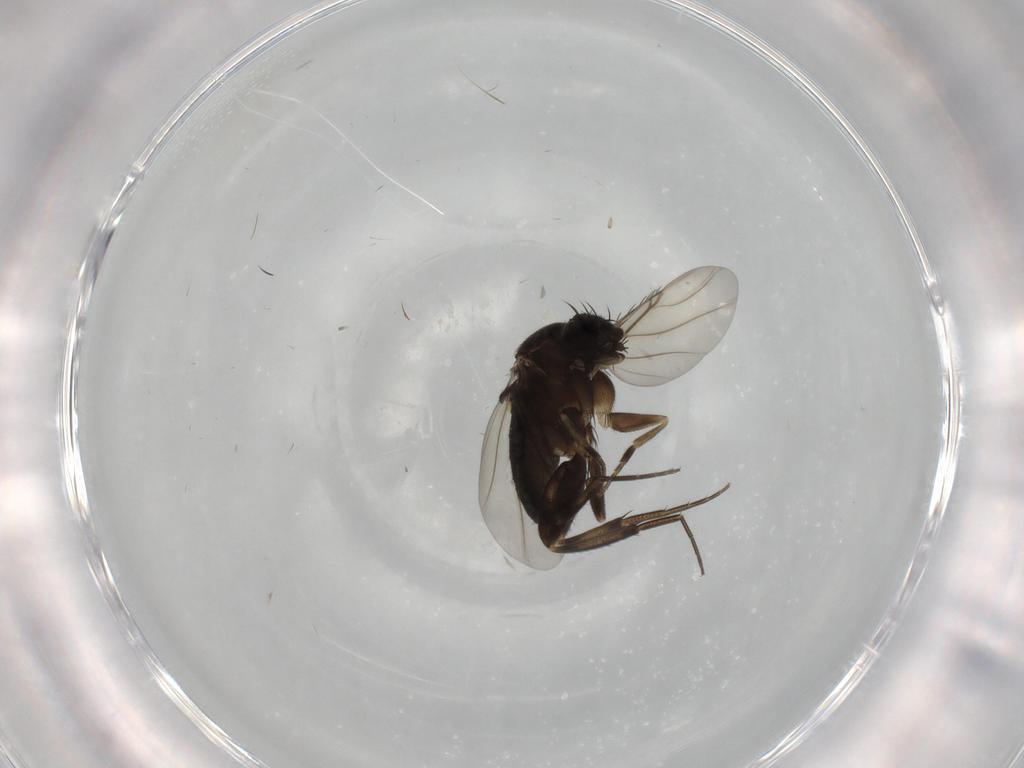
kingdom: Animalia
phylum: Arthropoda
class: Insecta
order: Diptera
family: Phoridae
